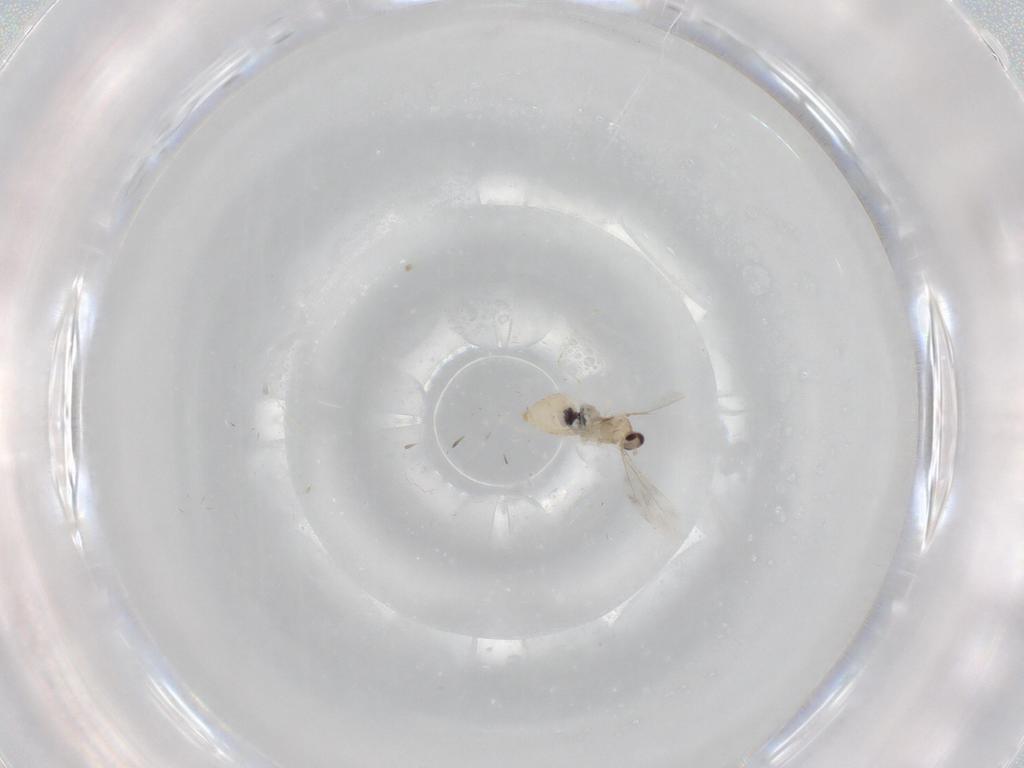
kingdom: Animalia
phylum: Arthropoda
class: Insecta
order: Diptera
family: Cecidomyiidae
